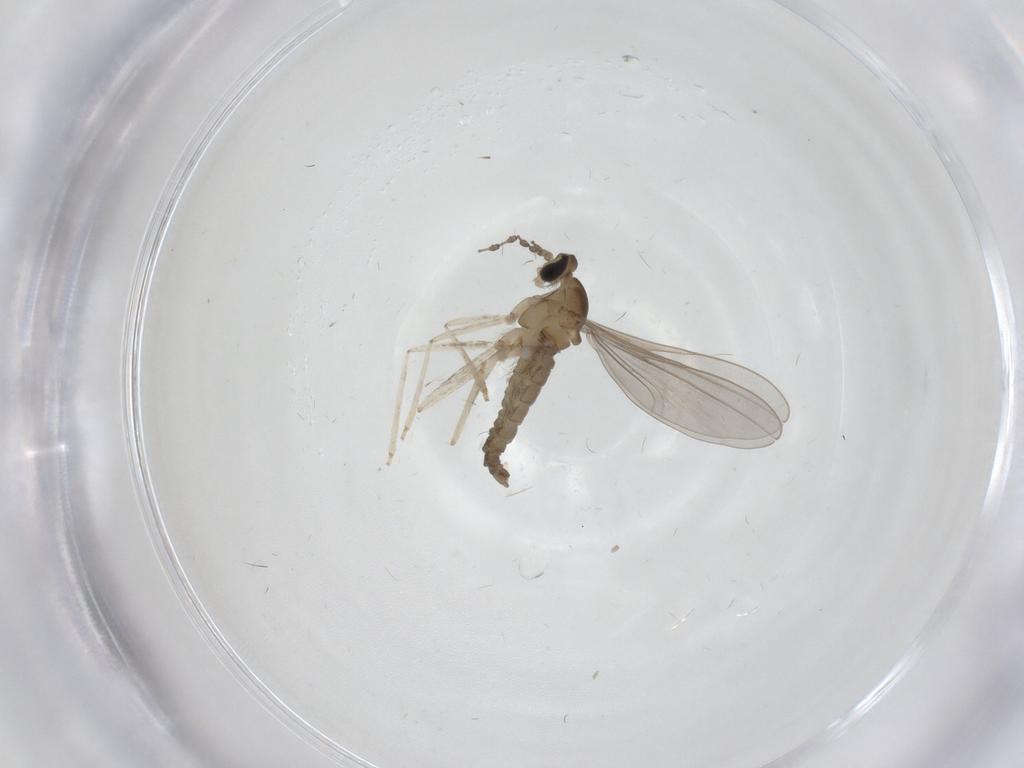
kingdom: Animalia
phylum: Arthropoda
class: Insecta
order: Diptera
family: Cecidomyiidae
